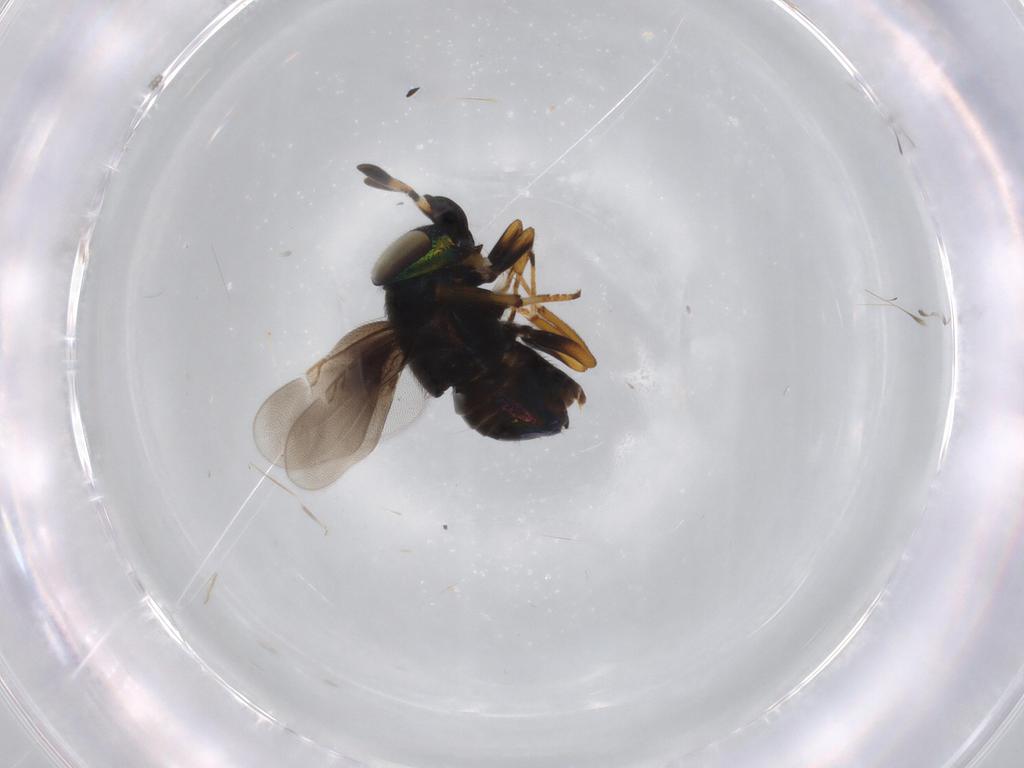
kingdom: Animalia
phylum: Arthropoda
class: Insecta
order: Hymenoptera
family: Encyrtidae
